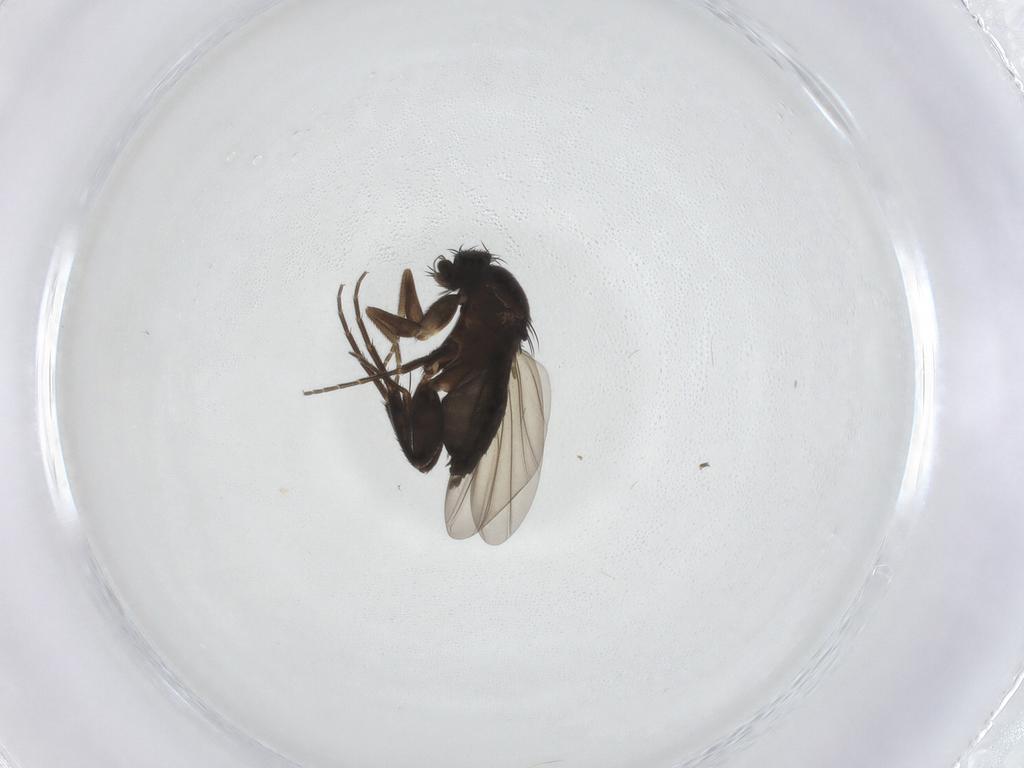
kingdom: Animalia
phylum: Arthropoda
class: Insecta
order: Diptera
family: Phoridae
